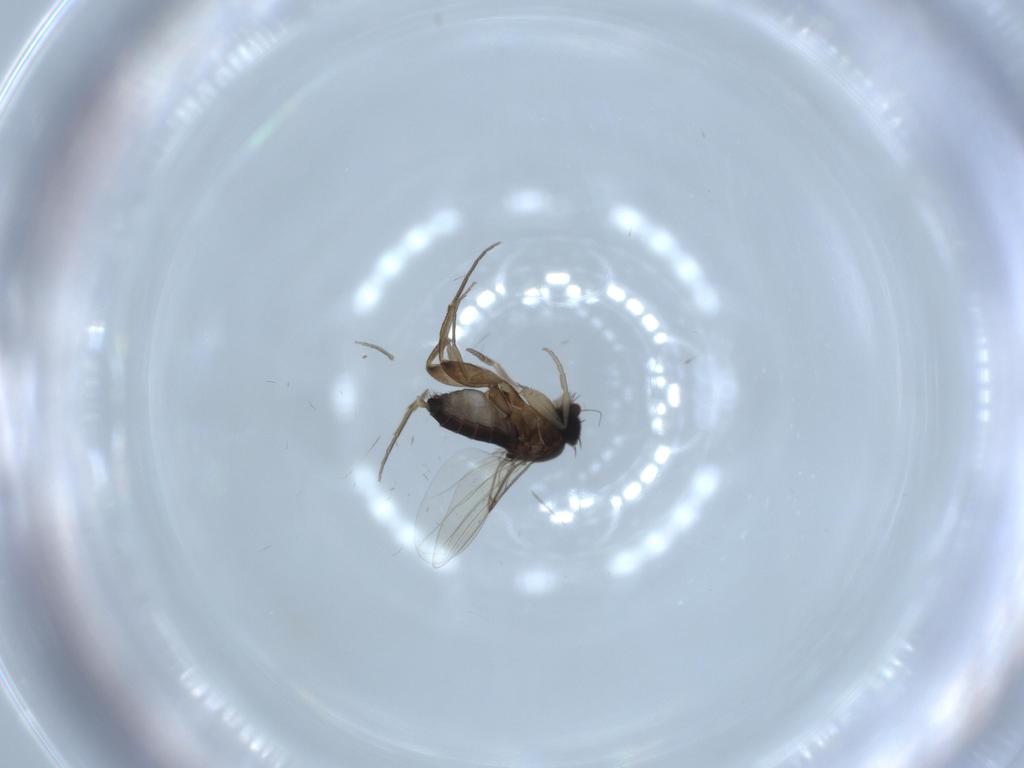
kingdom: Animalia
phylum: Arthropoda
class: Insecta
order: Diptera
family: Phoridae
